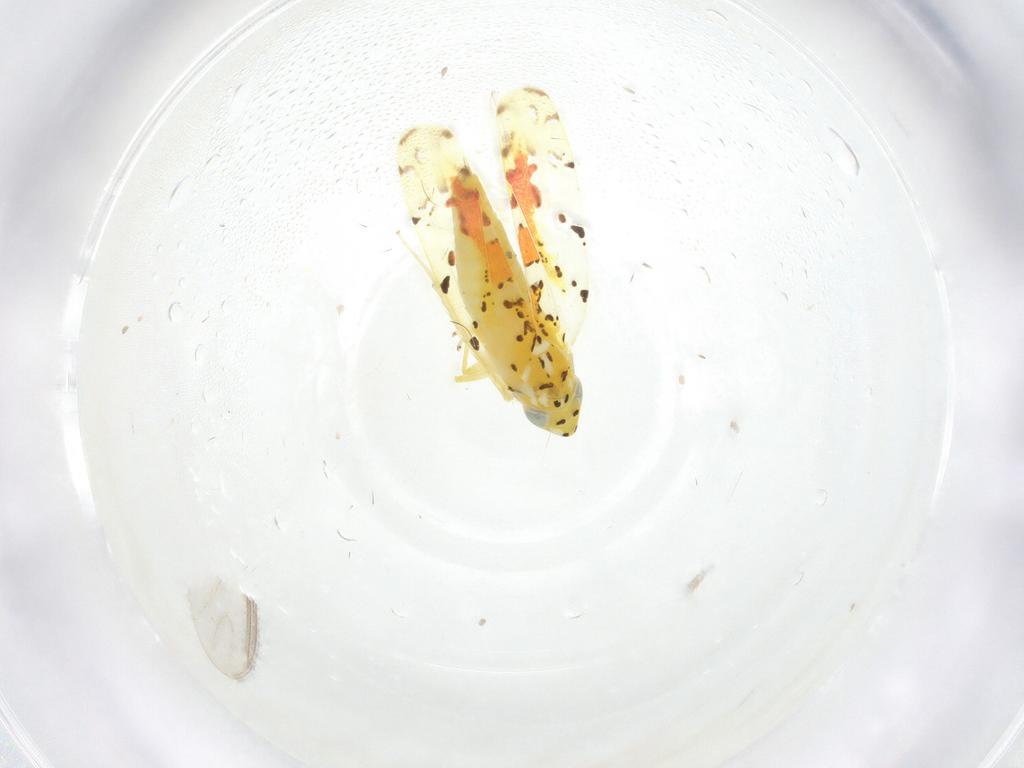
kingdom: Animalia
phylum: Arthropoda
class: Insecta
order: Hemiptera
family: Cicadellidae
